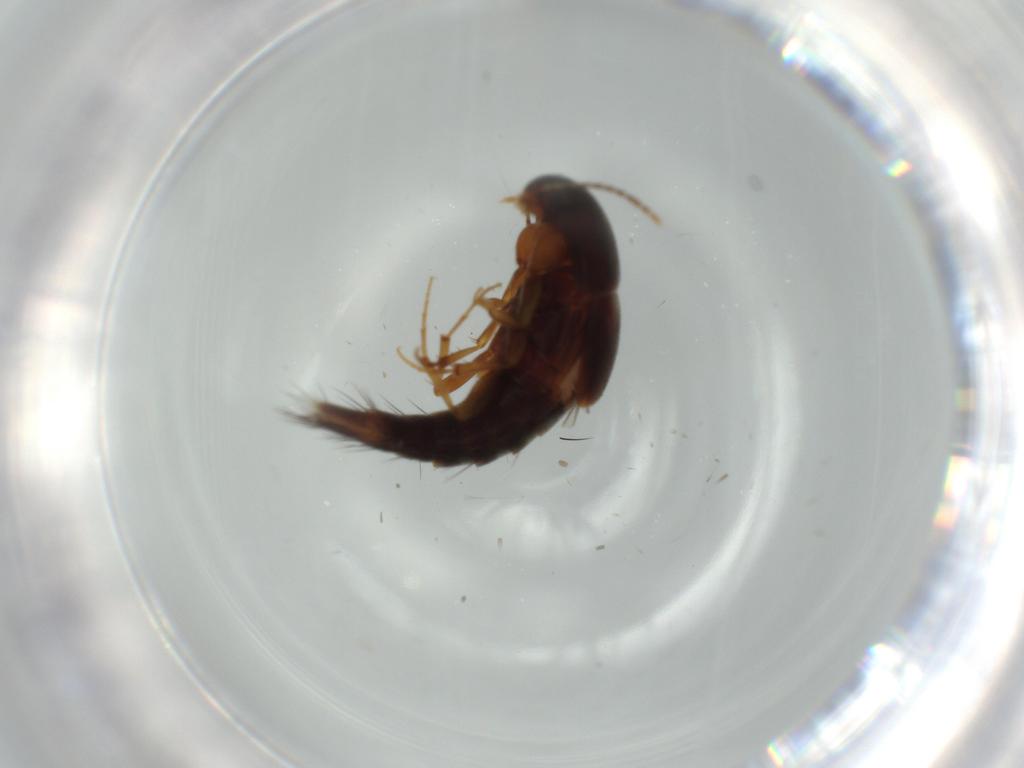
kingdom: Animalia
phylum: Arthropoda
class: Insecta
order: Coleoptera
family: Staphylinidae
